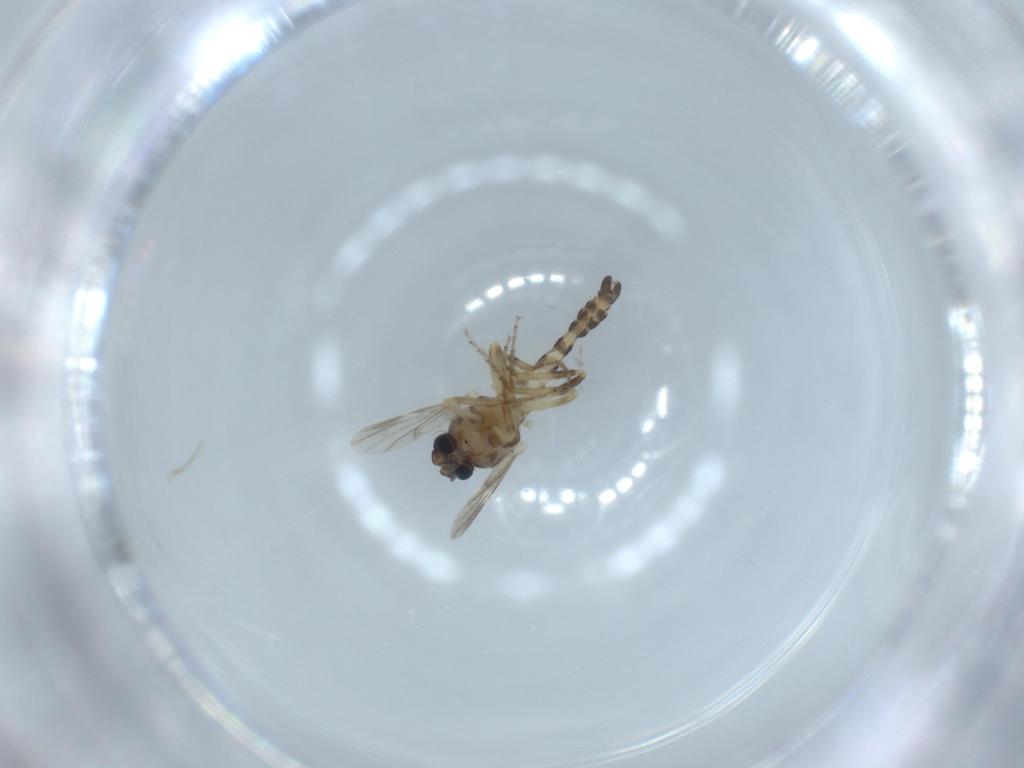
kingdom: Animalia
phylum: Arthropoda
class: Insecta
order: Diptera
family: Ceratopogonidae
